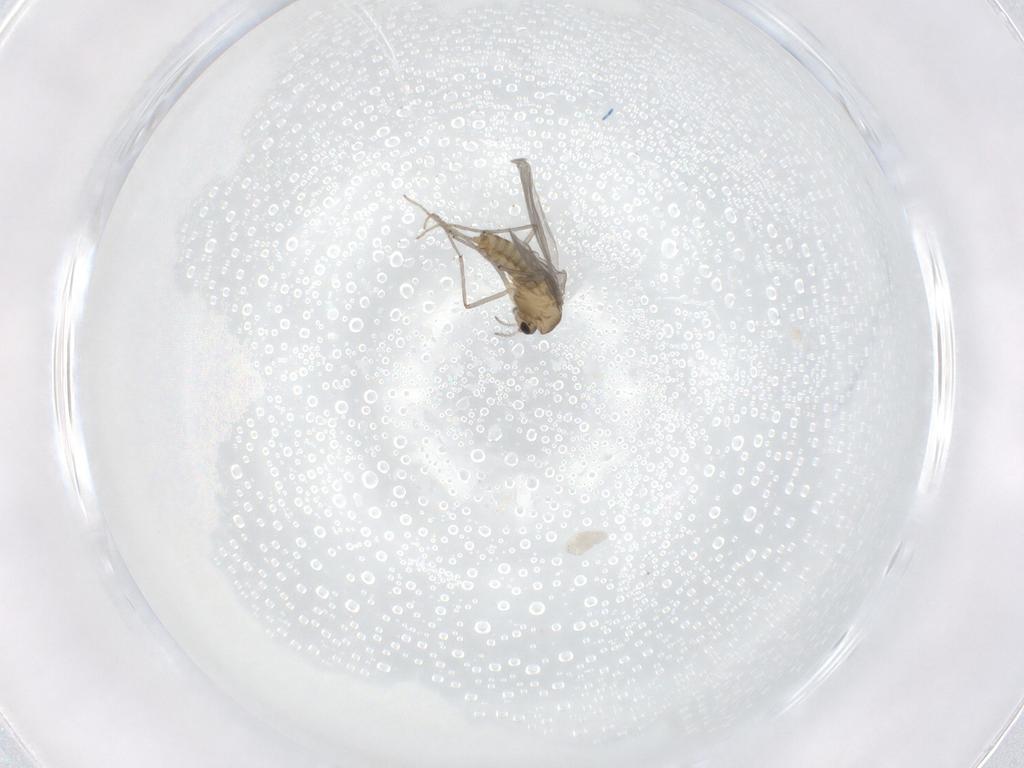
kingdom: Animalia
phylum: Arthropoda
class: Insecta
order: Diptera
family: Chironomidae
